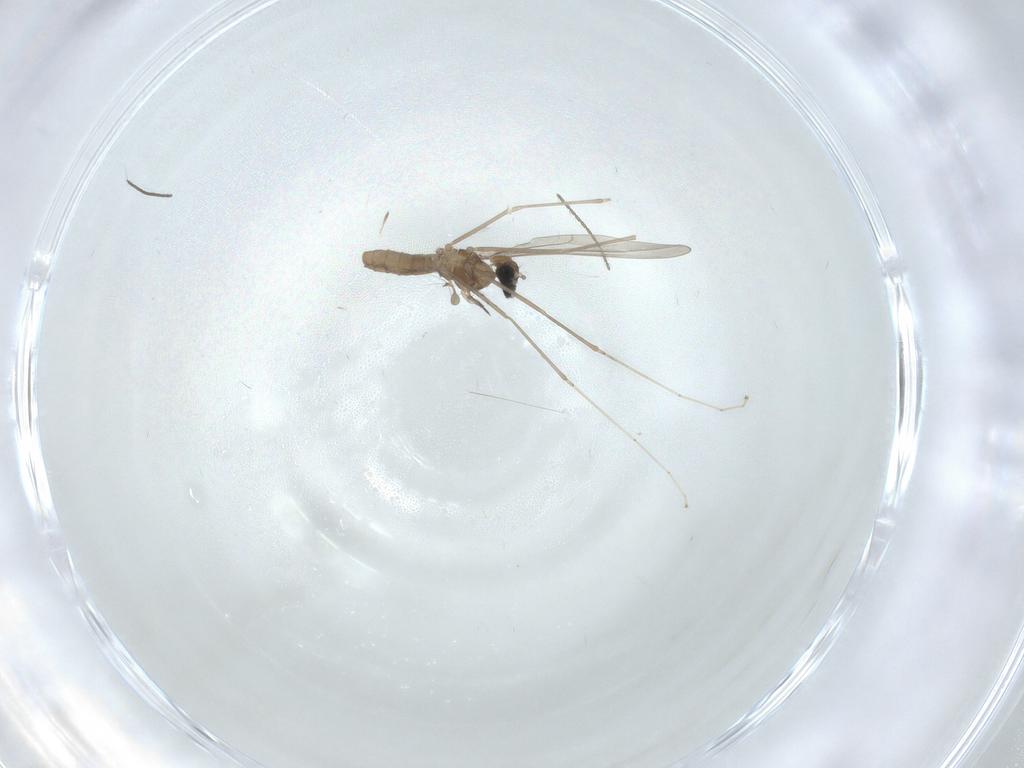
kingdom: Animalia
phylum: Arthropoda
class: Insecta
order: Diptera
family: Cecidomyiidae
